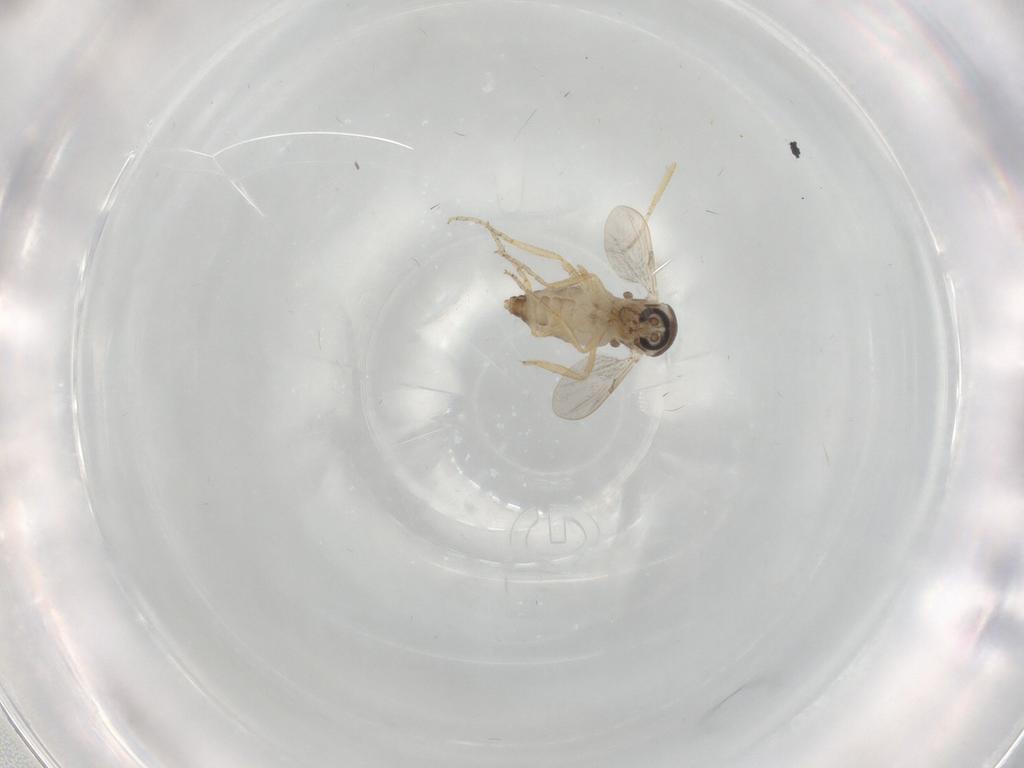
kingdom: Animalia
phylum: Arthropoda
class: Insecta
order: Diptera
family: Ceratopogonidae
